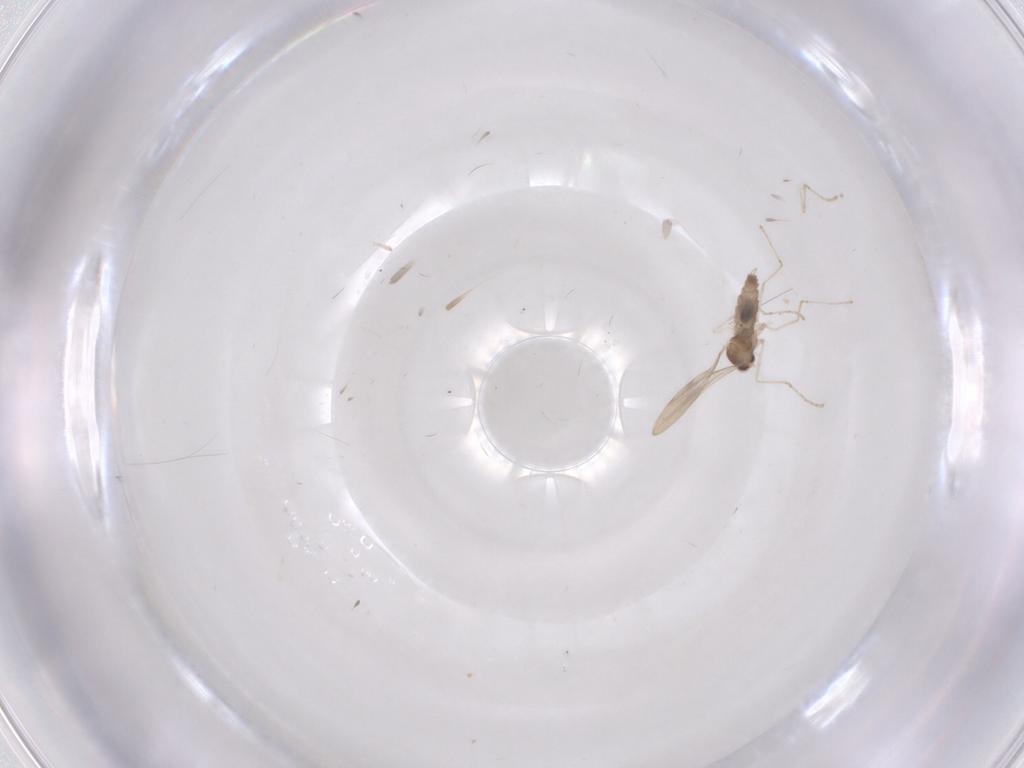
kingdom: Animalia
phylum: Arthropoda
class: Insecta
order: Diptera
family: Cecidomyiidae
